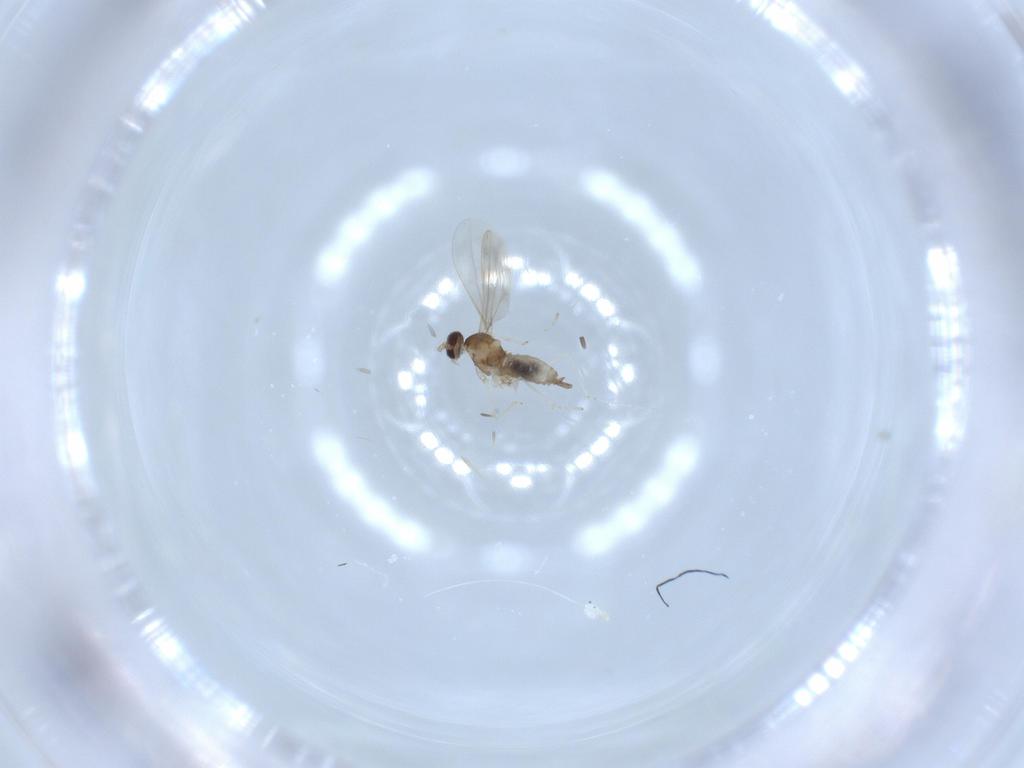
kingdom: Animalia
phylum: Arthropoda
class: Insecta
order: Diptera
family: Cecidomyiidae
